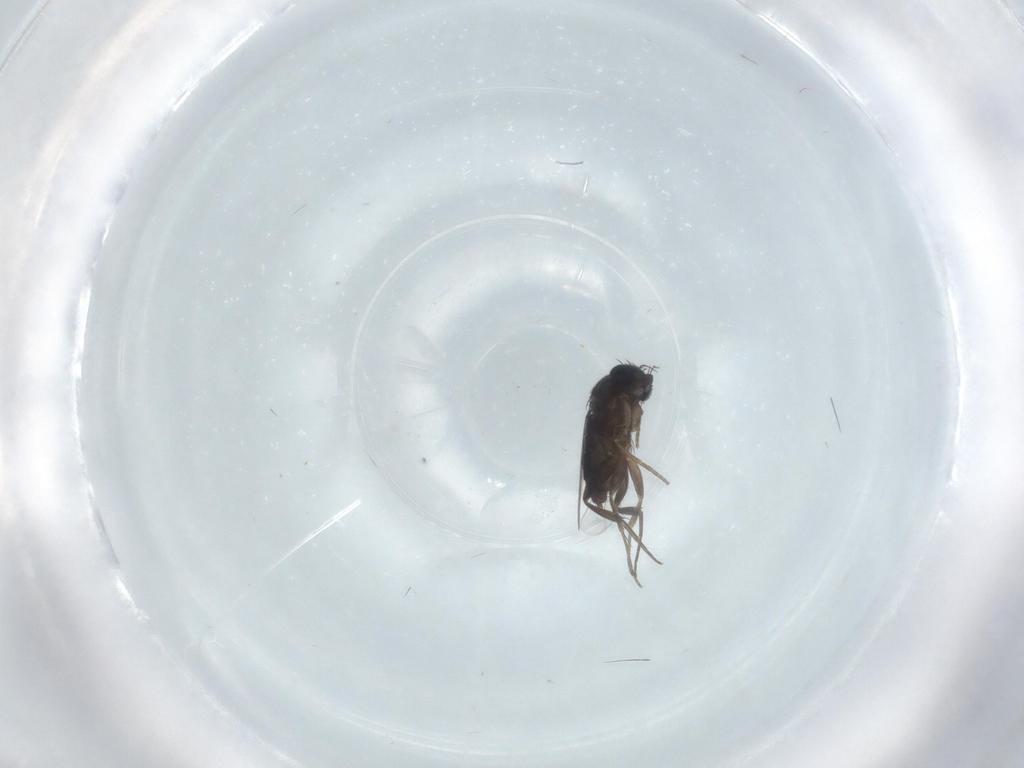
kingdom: Animalia
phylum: Arthropoda
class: Insecta
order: Diptera
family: Phoridae
